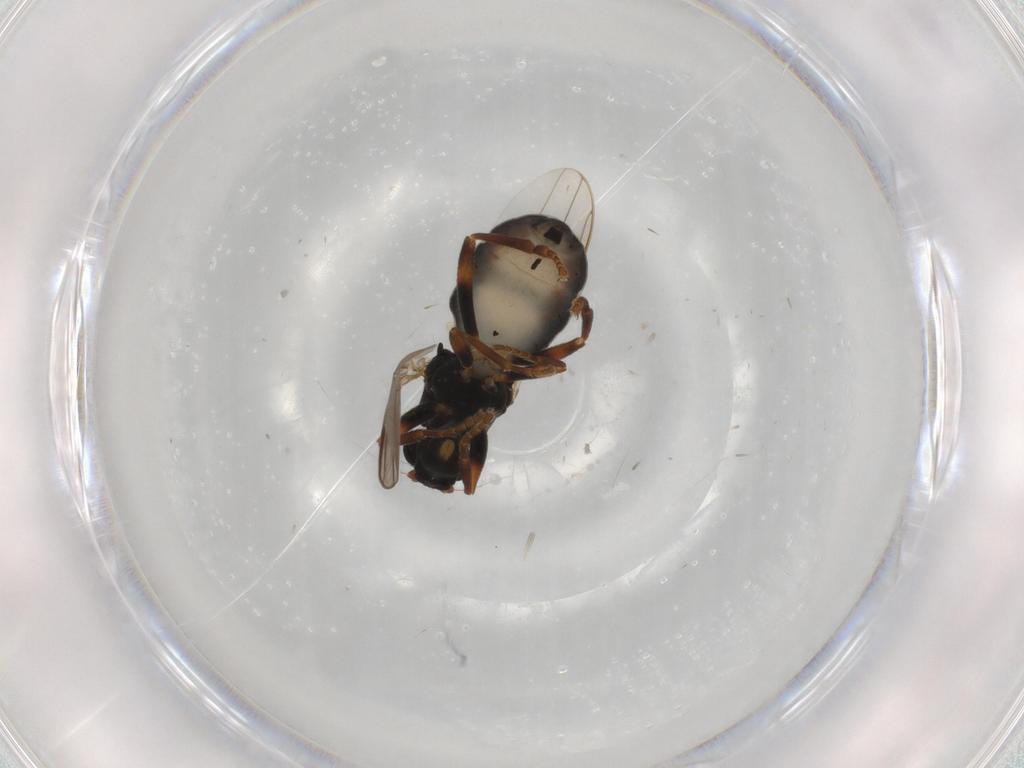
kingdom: Animalia
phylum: Arthropoda
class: Insecta
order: Diptera
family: Sphaeroceridae
